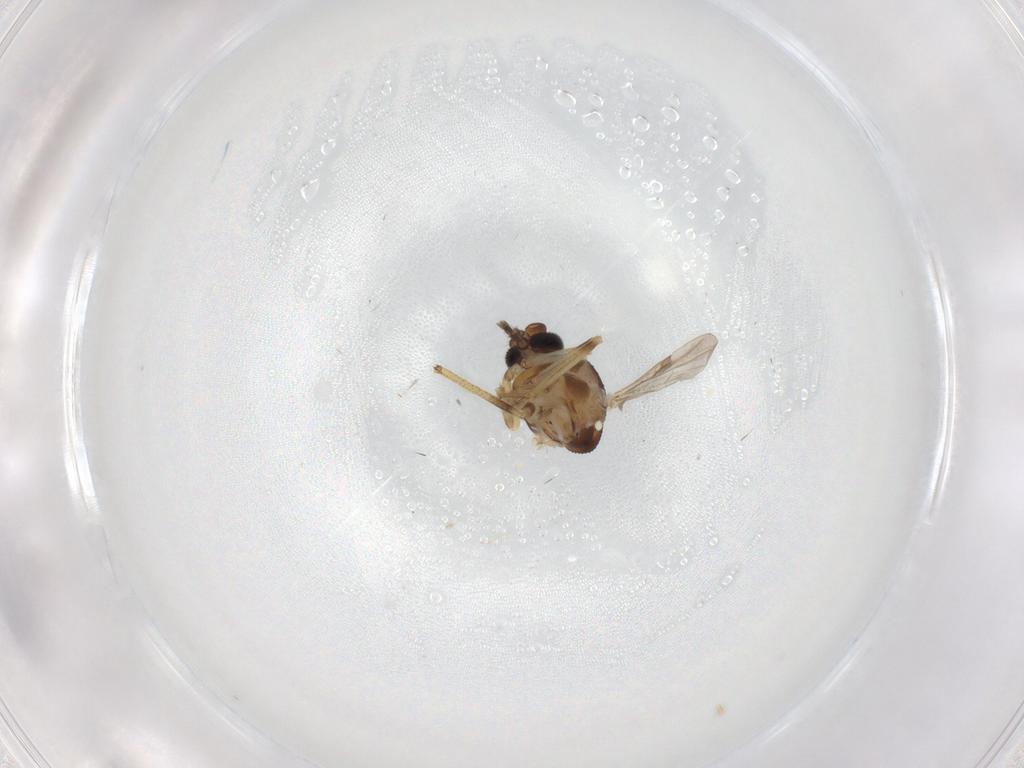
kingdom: Animalia
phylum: Arthropoda
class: Insecta
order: Diptera
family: Ceratopogonidae
